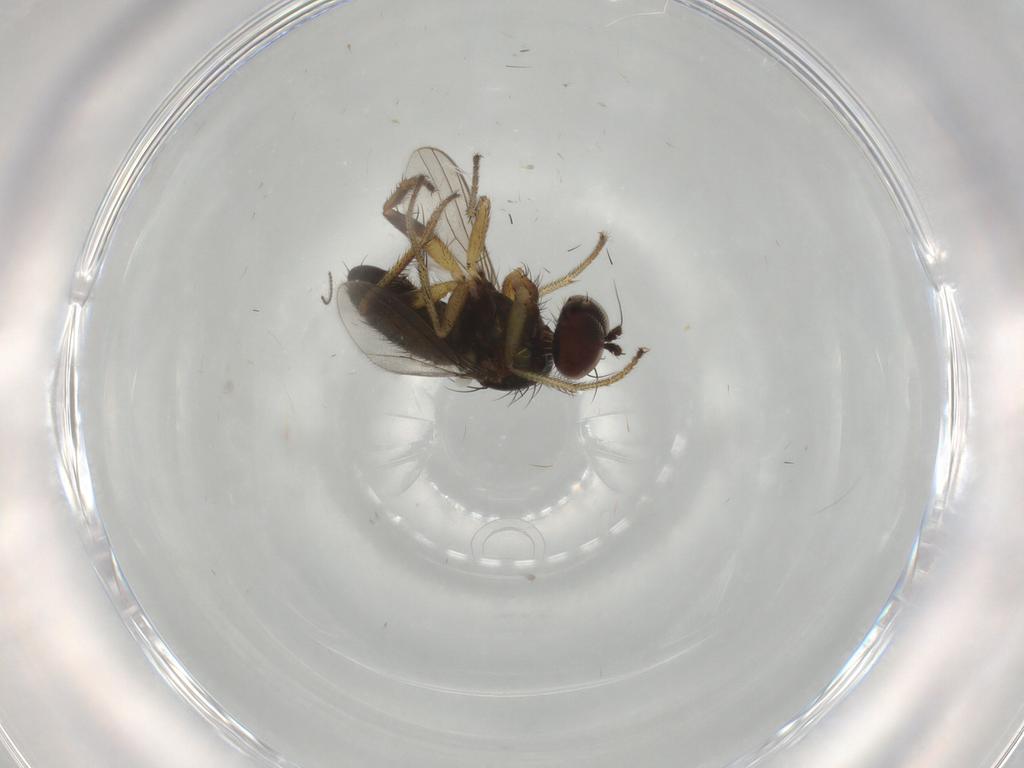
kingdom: Animalia
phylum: Arthropoda
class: Insecta
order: Diptera
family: Dolichopodidae
